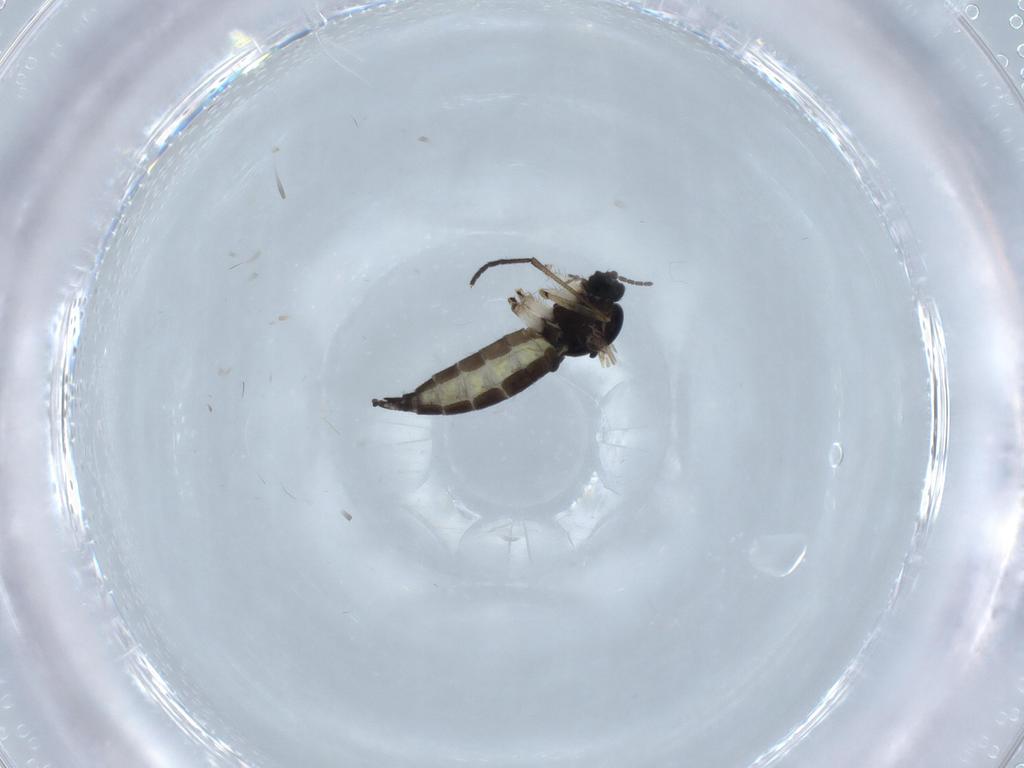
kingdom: Animalia
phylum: Arthropoda
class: Insecta
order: Diptera
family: Sciaridae
